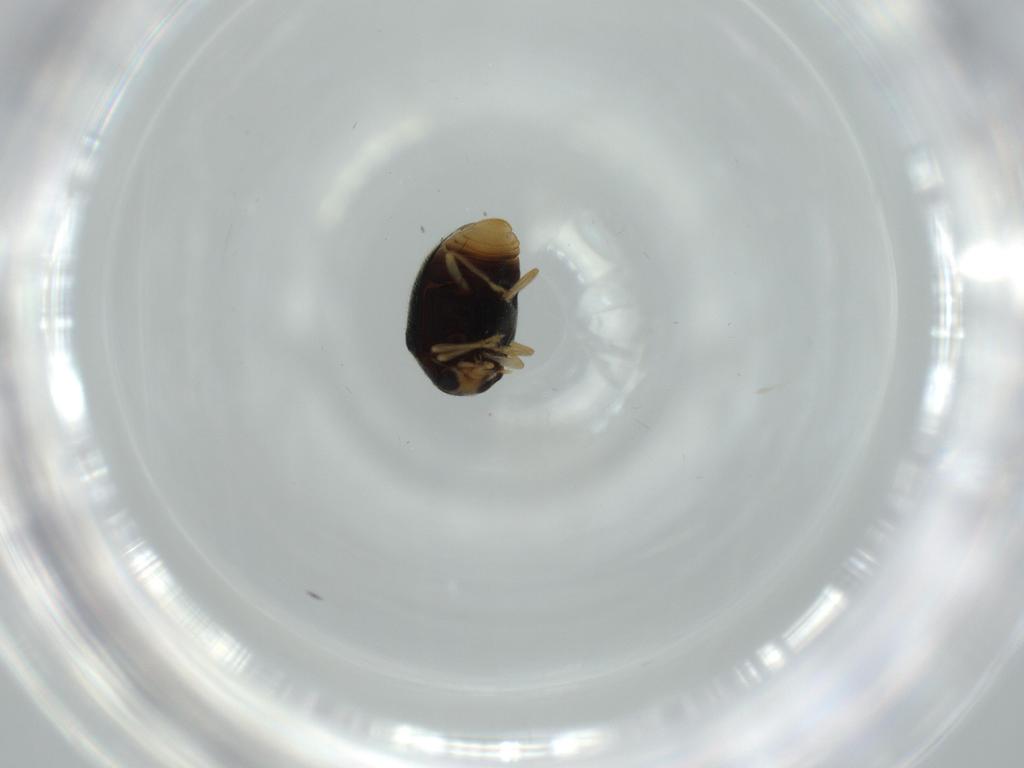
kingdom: Animalia
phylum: Arthropoda
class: Insecta
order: Coleoptera
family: Coccinellidae
